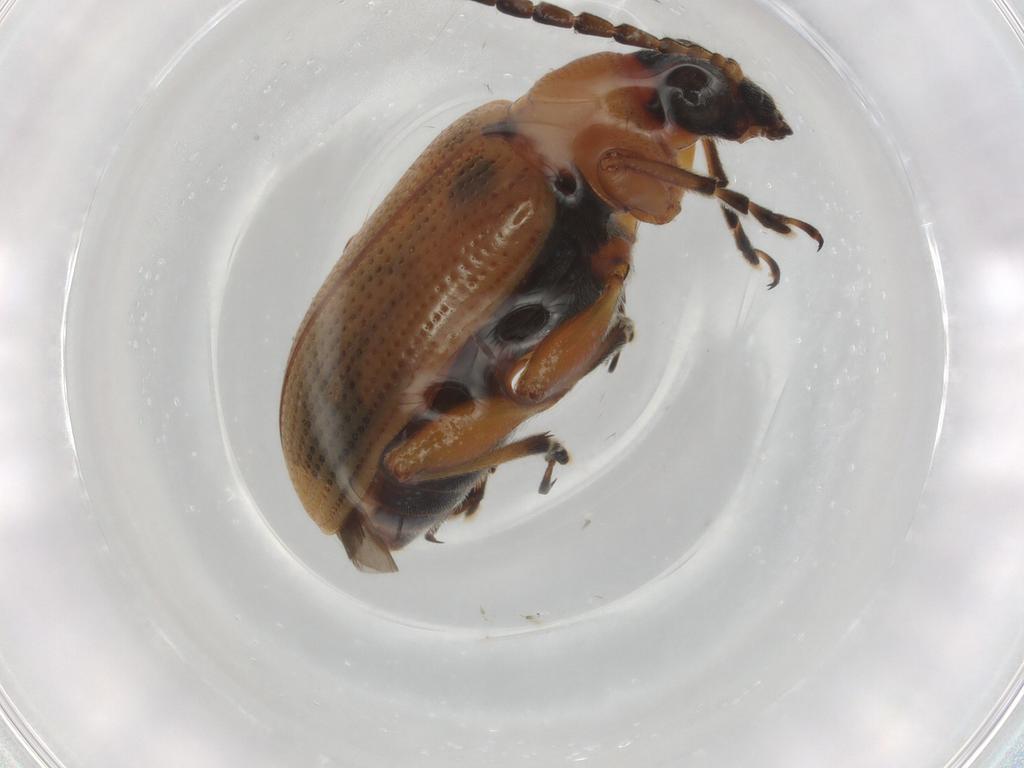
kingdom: Animalia
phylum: Arthropoda
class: Insecta
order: Coleoptera
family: Chrysomelidae
